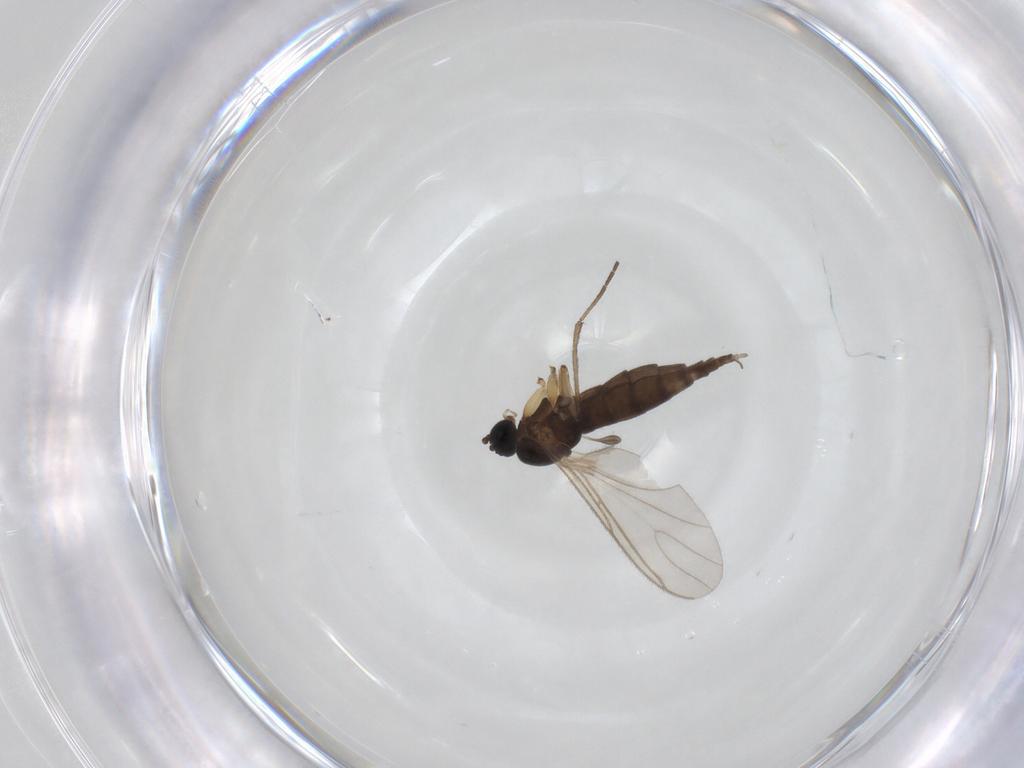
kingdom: Animalia
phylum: Arthropoda
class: Insecta
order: Diptera
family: Sciaridae
